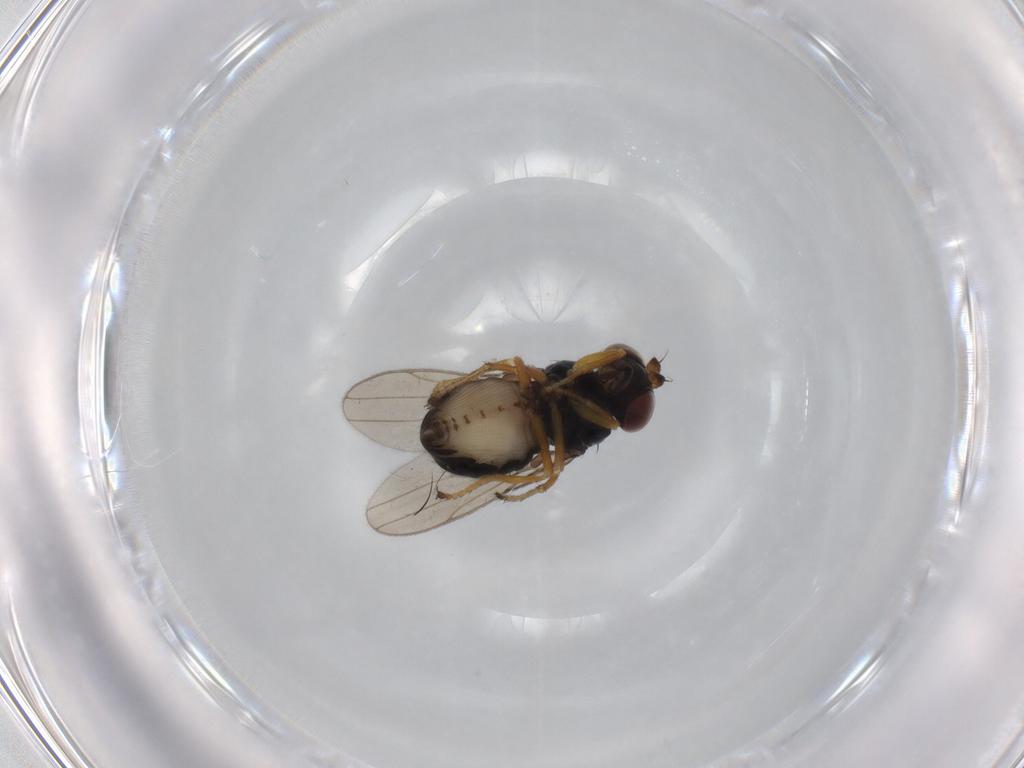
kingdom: Animalia
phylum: Arthropoda
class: Insecta
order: Diptera
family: Ephydridae
